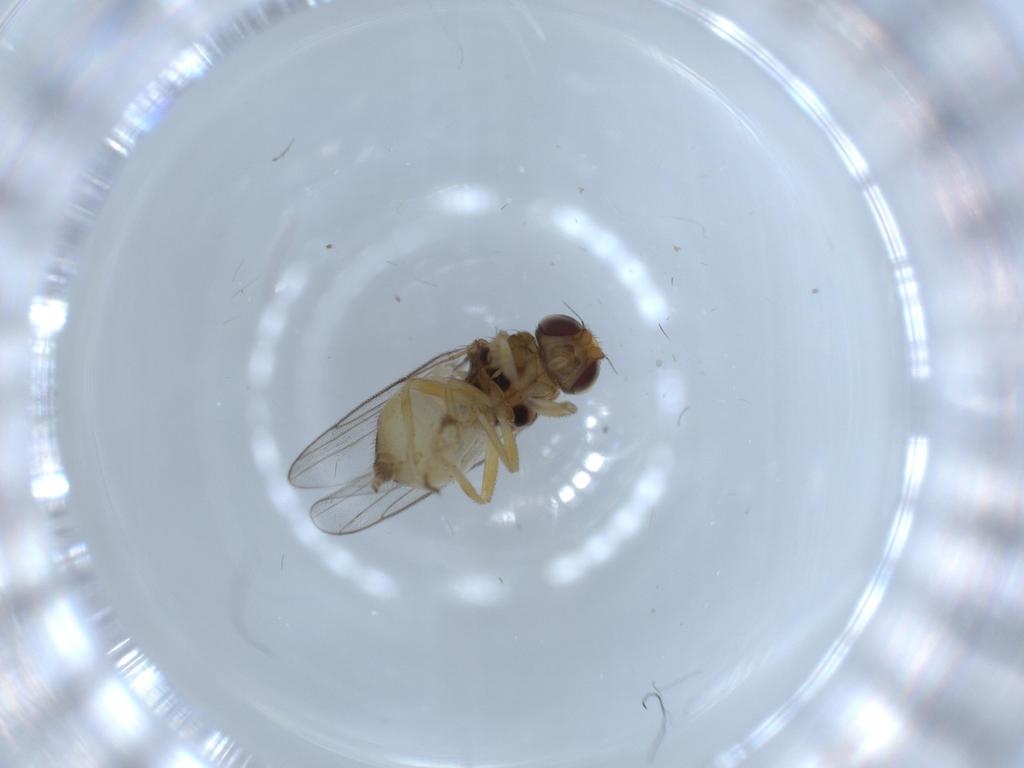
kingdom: Animalia
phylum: Arthropoda
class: Insecta
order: Diptera
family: Chloropidae
